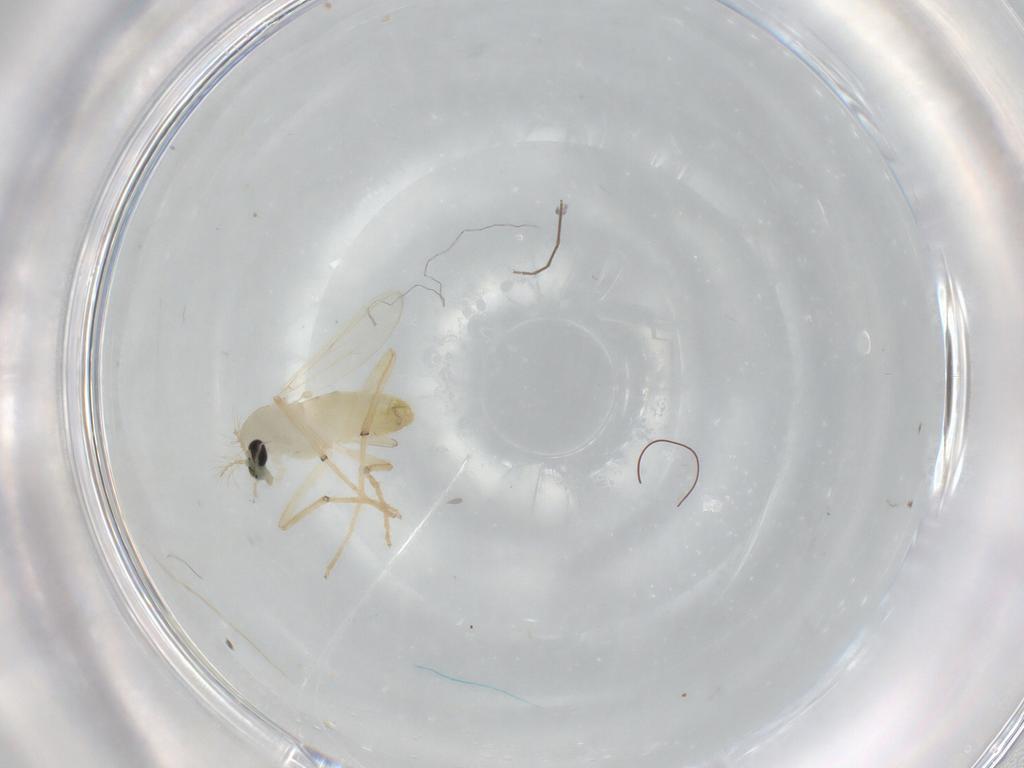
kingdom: Animalia
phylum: Arthropoda
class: Insecta
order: Diptera
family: Chironomidae
